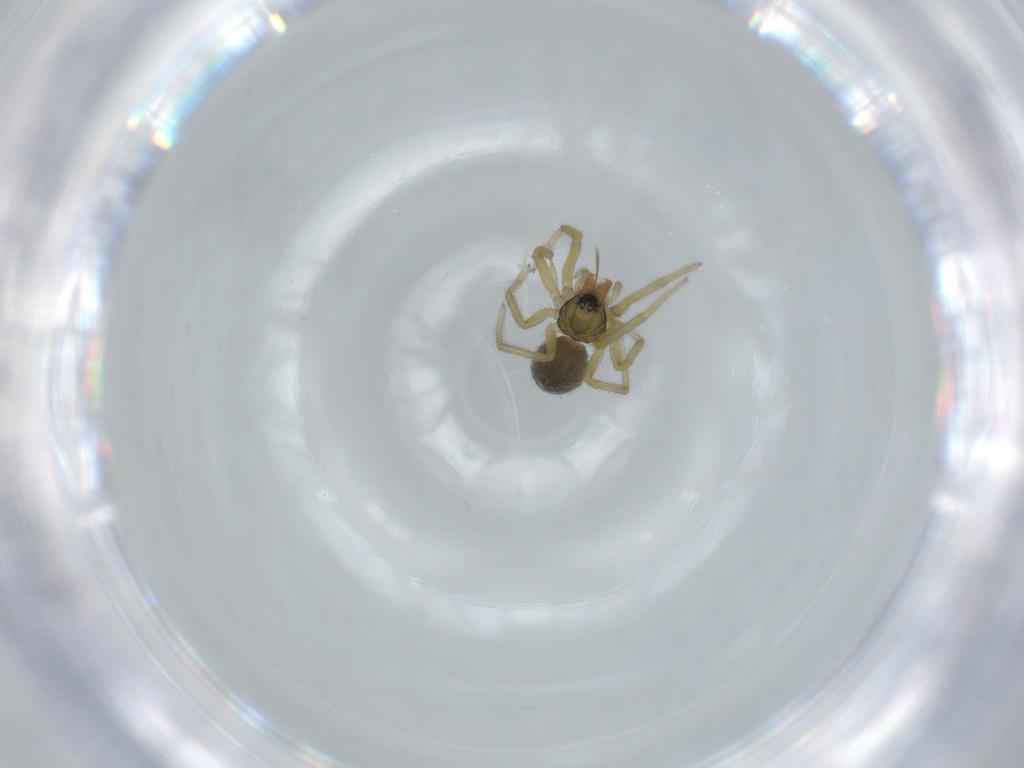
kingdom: Animalia
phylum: Arthropoda
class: Arachnida
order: Araneae
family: Linyphiidae
